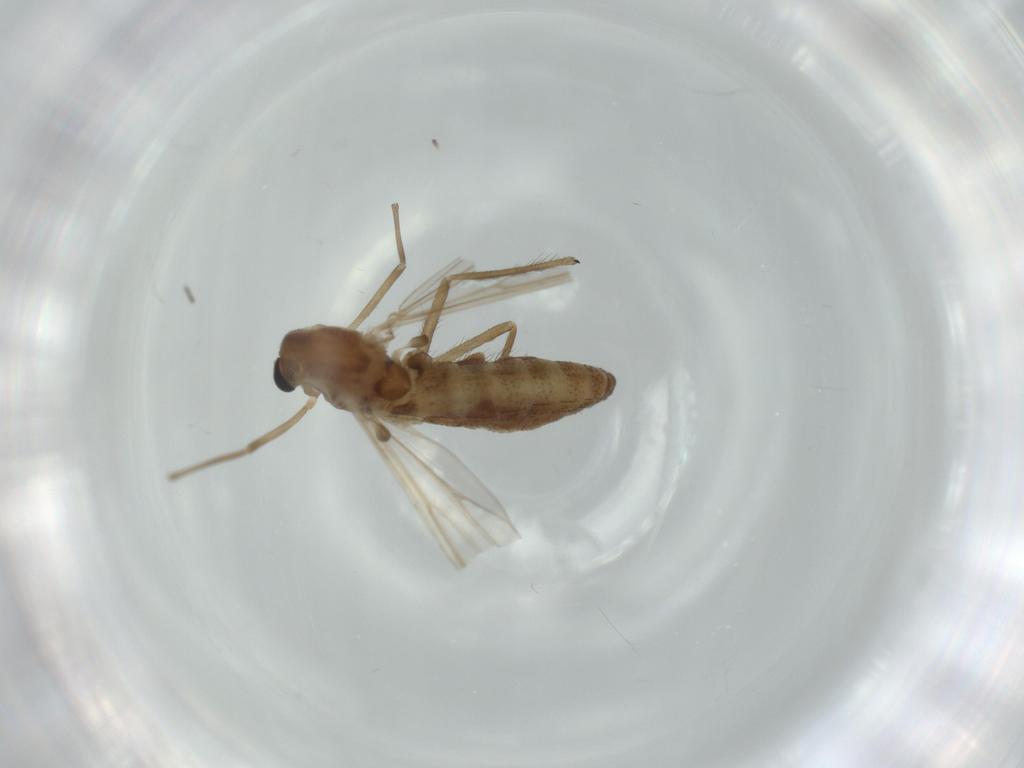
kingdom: Animalia
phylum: Arthropoda
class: Insecta
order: Diptera
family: Chironomidae
